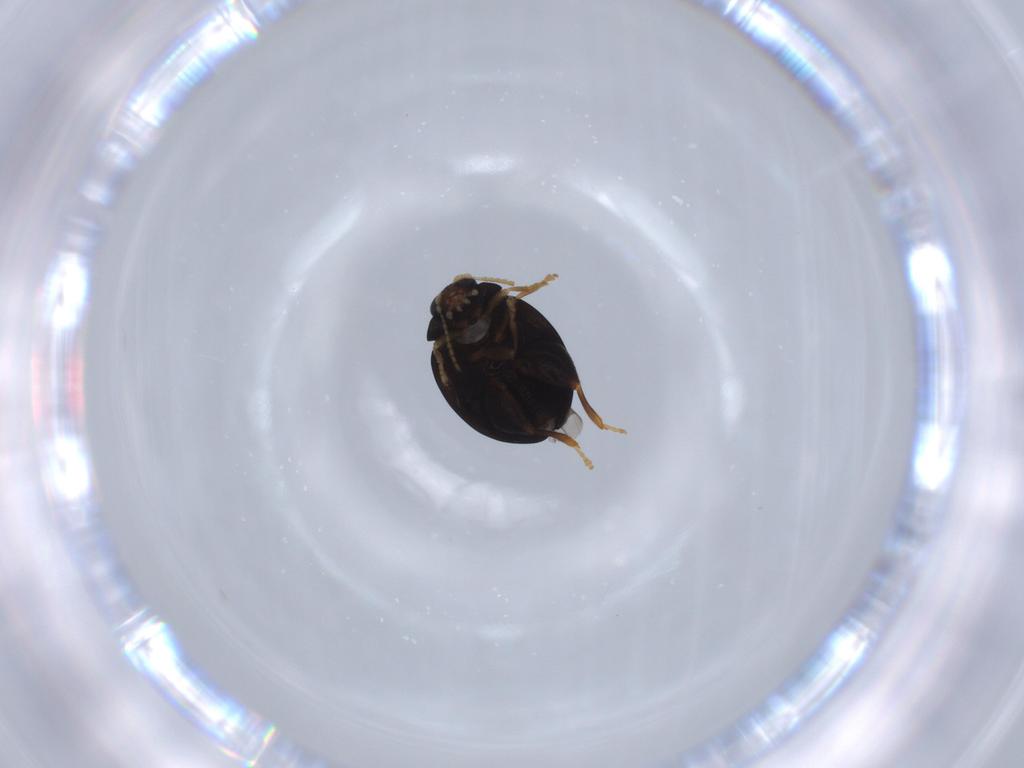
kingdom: Animalia
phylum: Arthropoda
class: Insecta
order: Coleoptera
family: Chrysomelidae
